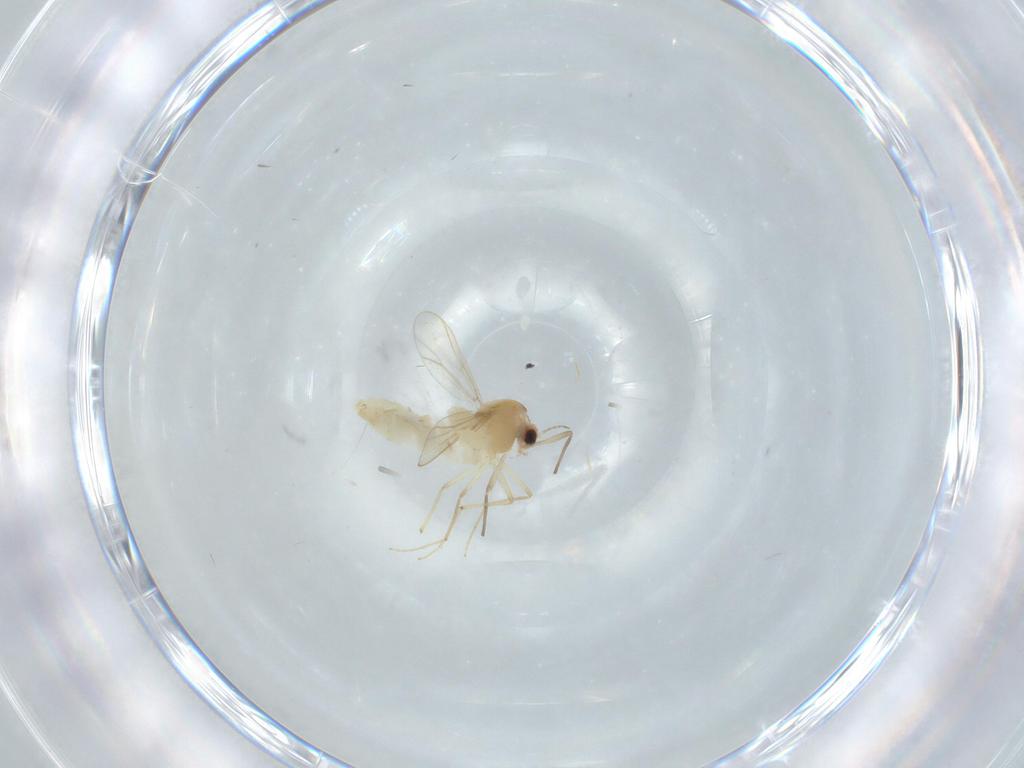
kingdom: Animalia
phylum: Arthropoda
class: Insecta
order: Diptera
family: Chironomidae
